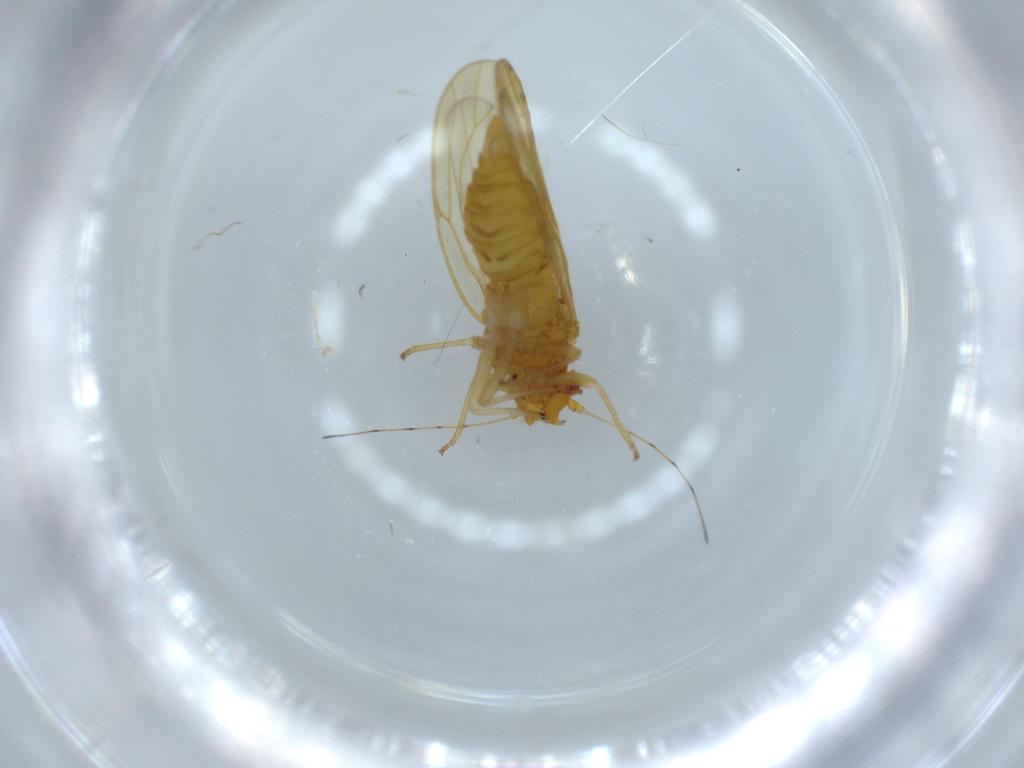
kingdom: Animalia
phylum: Arthropoda
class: Insecta
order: Hemiptera
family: Psylloidea_incertae_sedis
